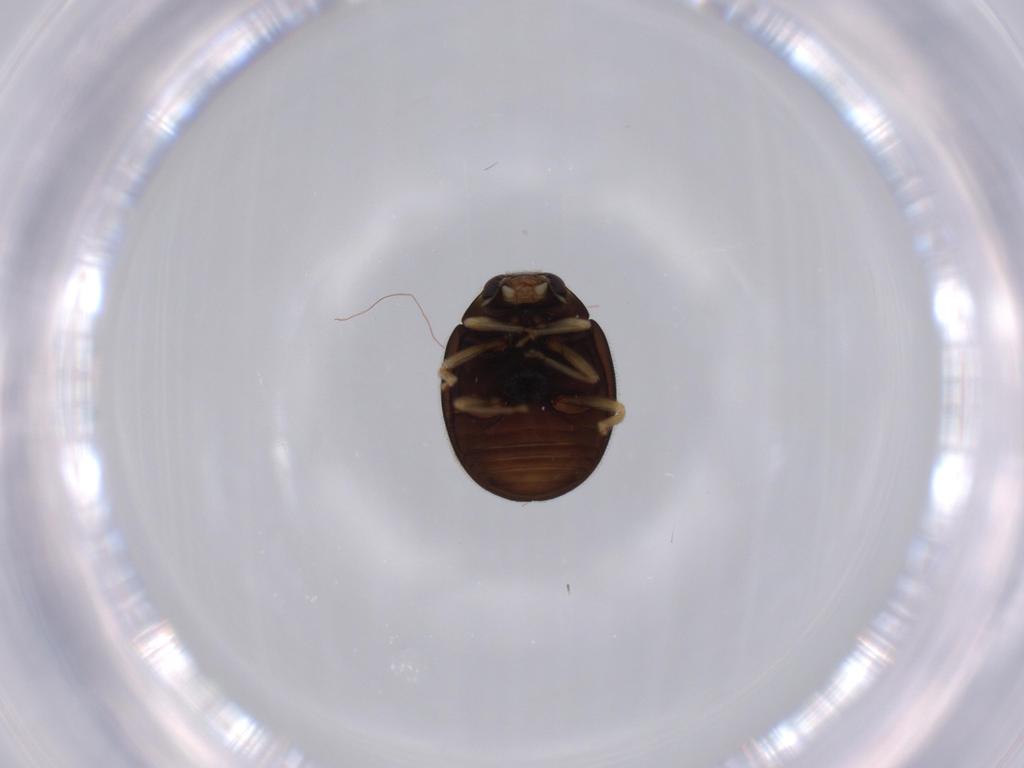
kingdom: Animalia
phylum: Arthropoda
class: Insecta
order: Coleoptera
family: Coccinellidae
